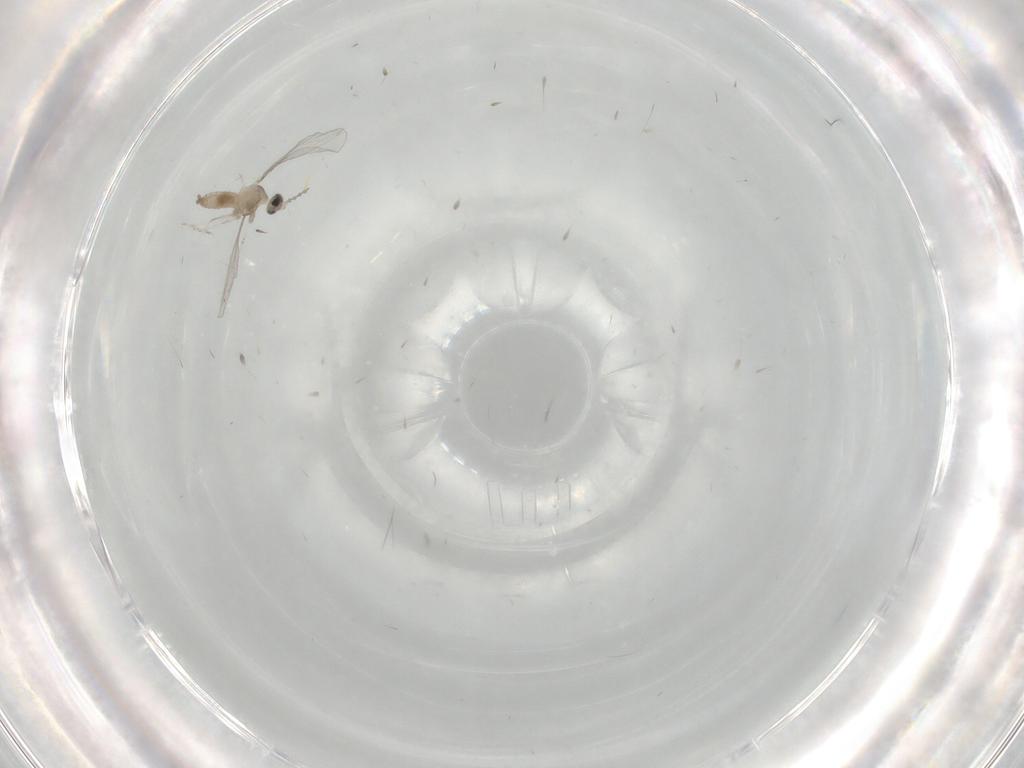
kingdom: Animalia
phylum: Arthropoda
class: Insecta
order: Diptera
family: Cecidomyiidae
